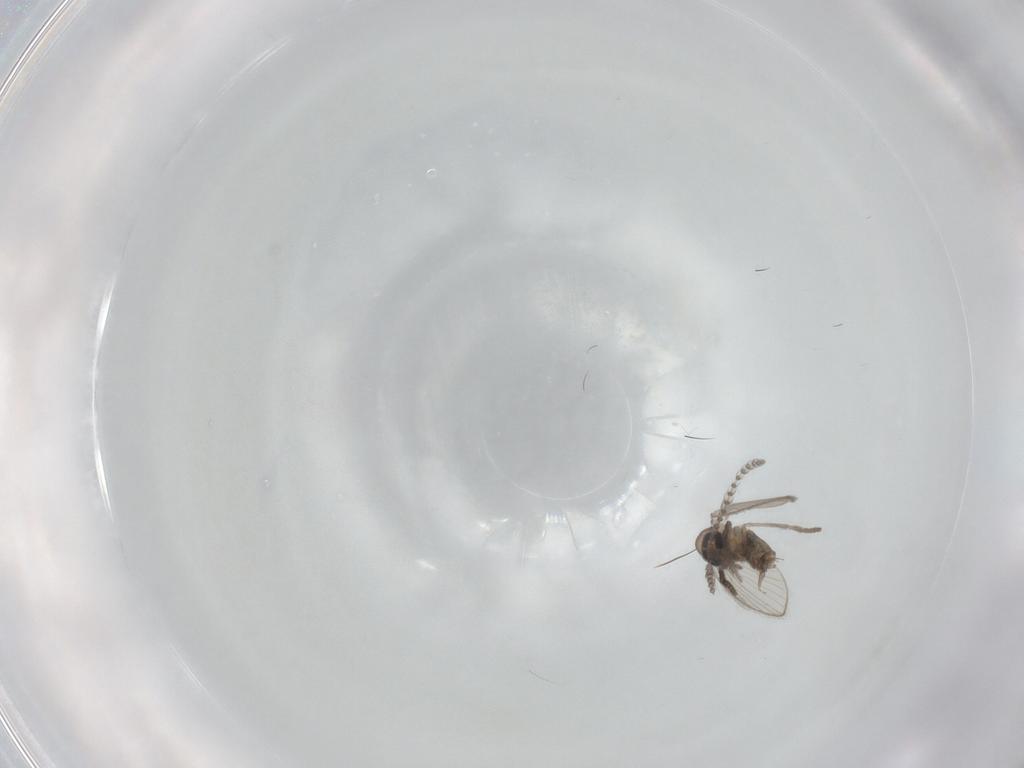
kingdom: Animalia
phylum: Arthropoda
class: Insecta
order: Diptera
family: Psychodidae
